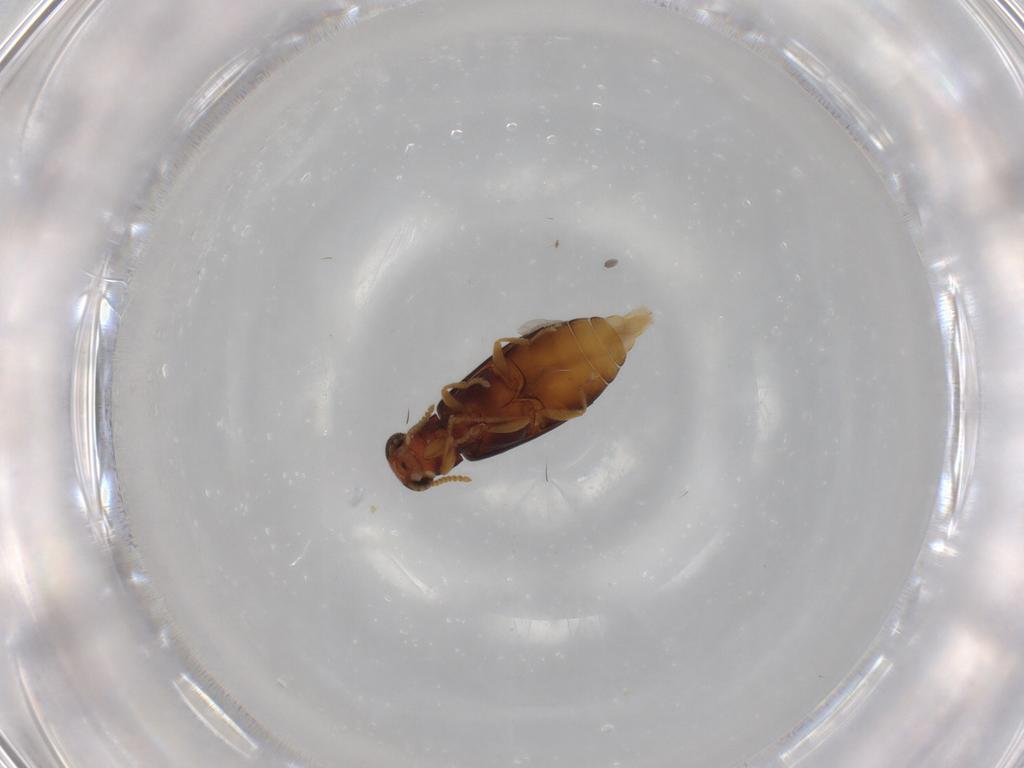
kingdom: Animalia
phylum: Arthropoda
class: Insecta
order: Coleoptera
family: Mycteridae
